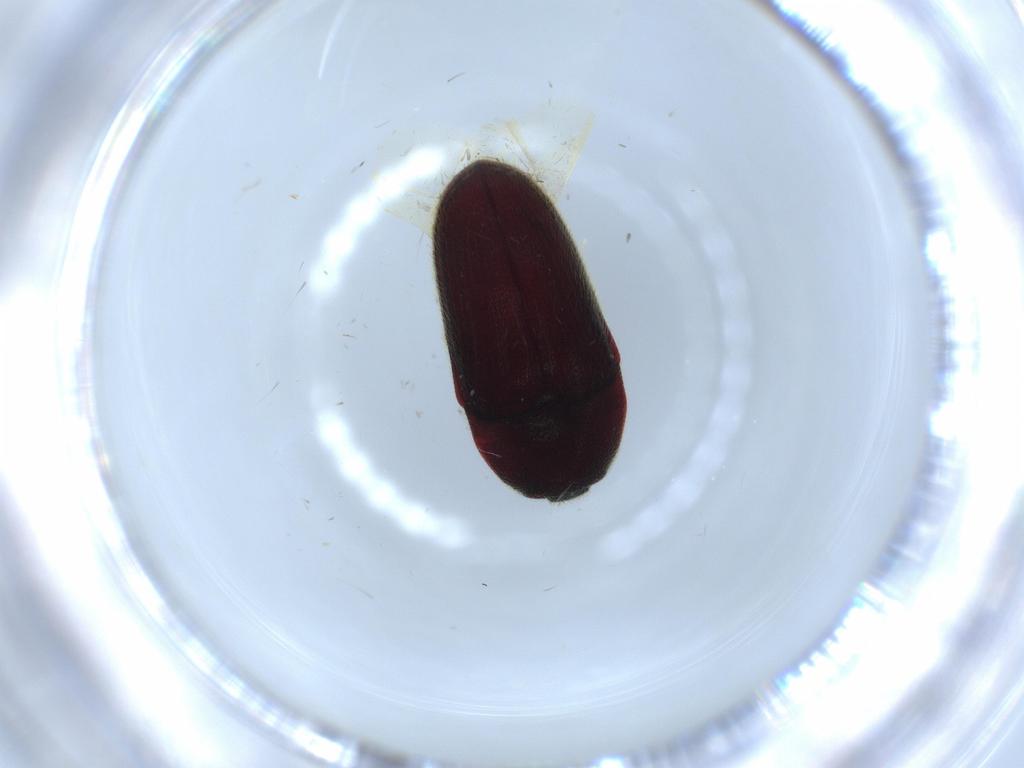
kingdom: Animalia
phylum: Arthropoda
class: Insecta
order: Coleoptera
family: Throscidae
